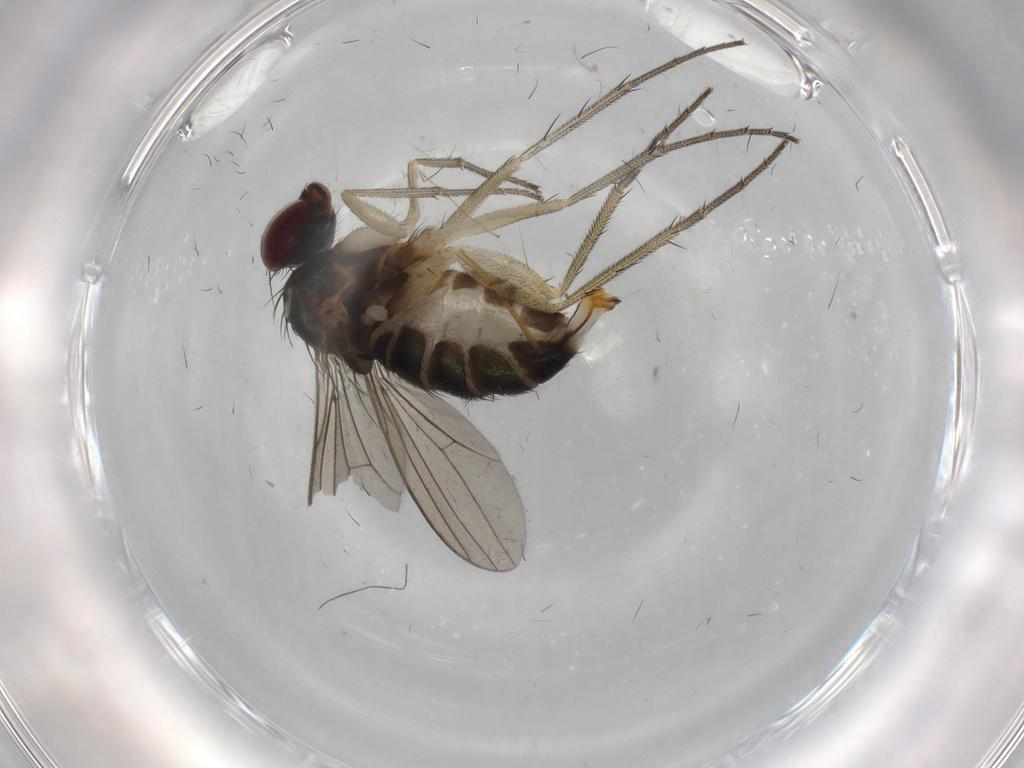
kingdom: Animalia
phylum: Arthropoda
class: Insecta
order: Diptera
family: Dolichopodidae
